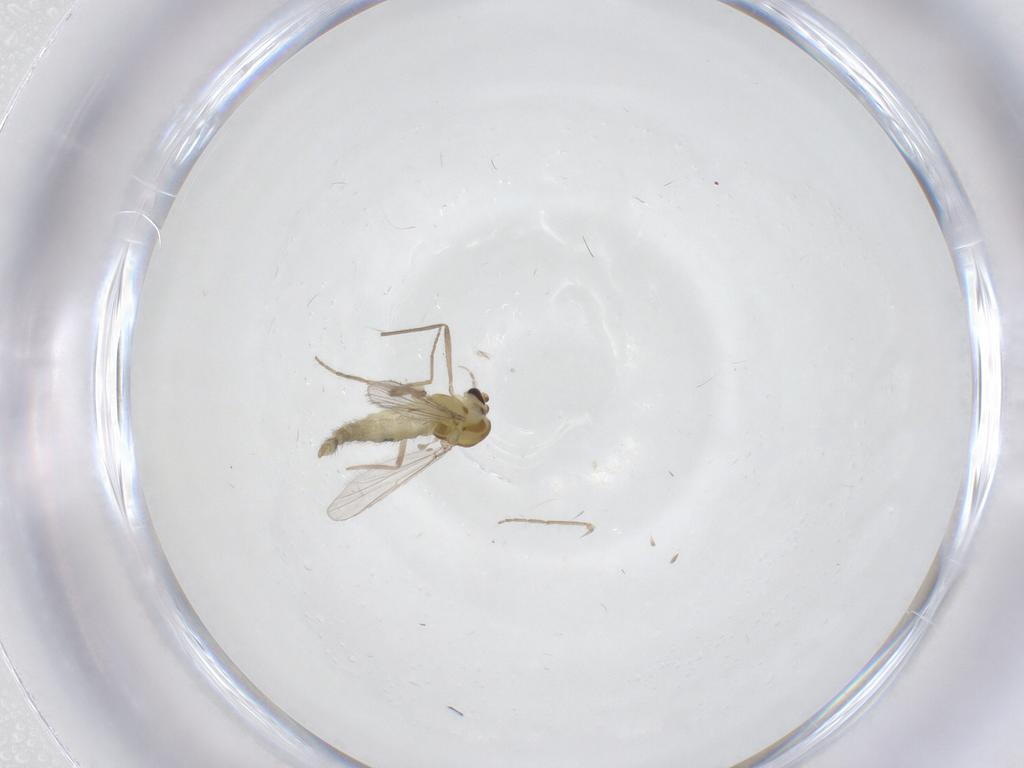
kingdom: Animalia
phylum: Arthropoda
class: Insecta
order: Diptera
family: Chironomidae
